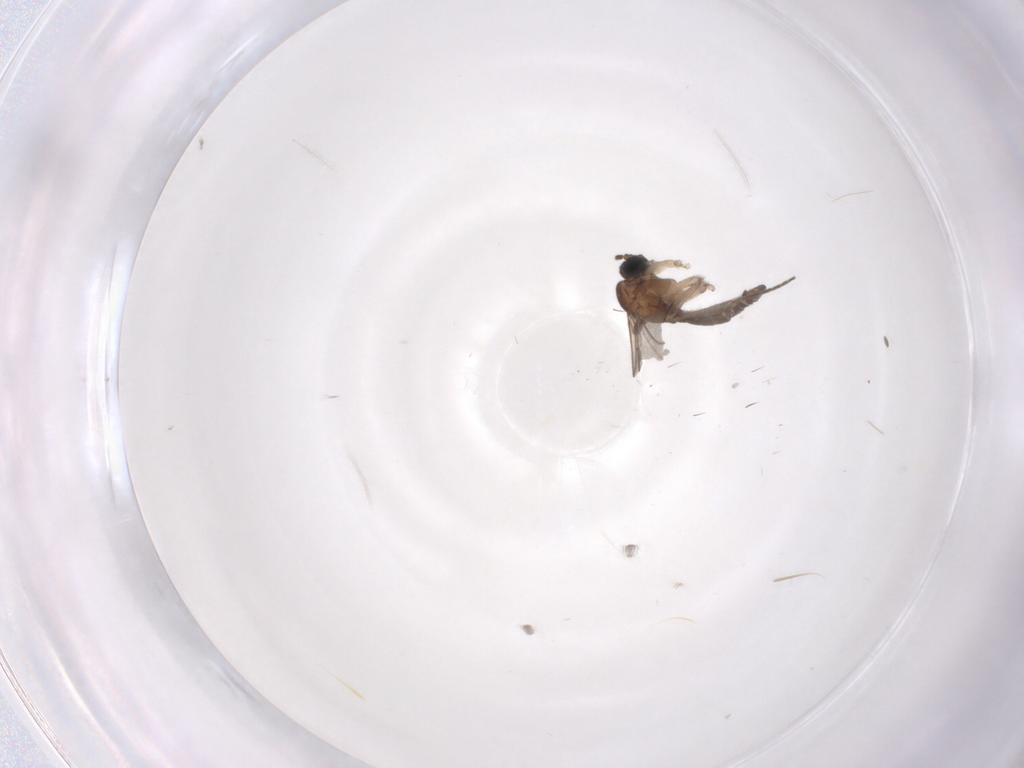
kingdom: Animalia
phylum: Arthropoda
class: Insecta
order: Diptera
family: Sciaridae
